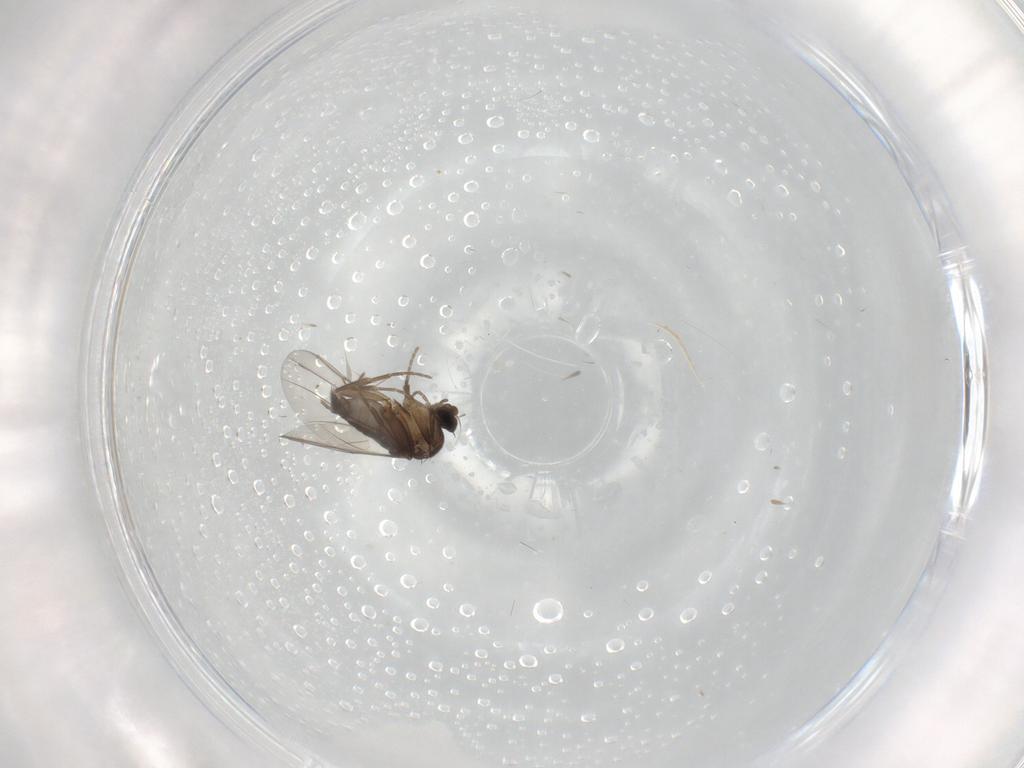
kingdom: Animalia
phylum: Arthropoda
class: Insecta
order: Diptera
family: Phoridae
